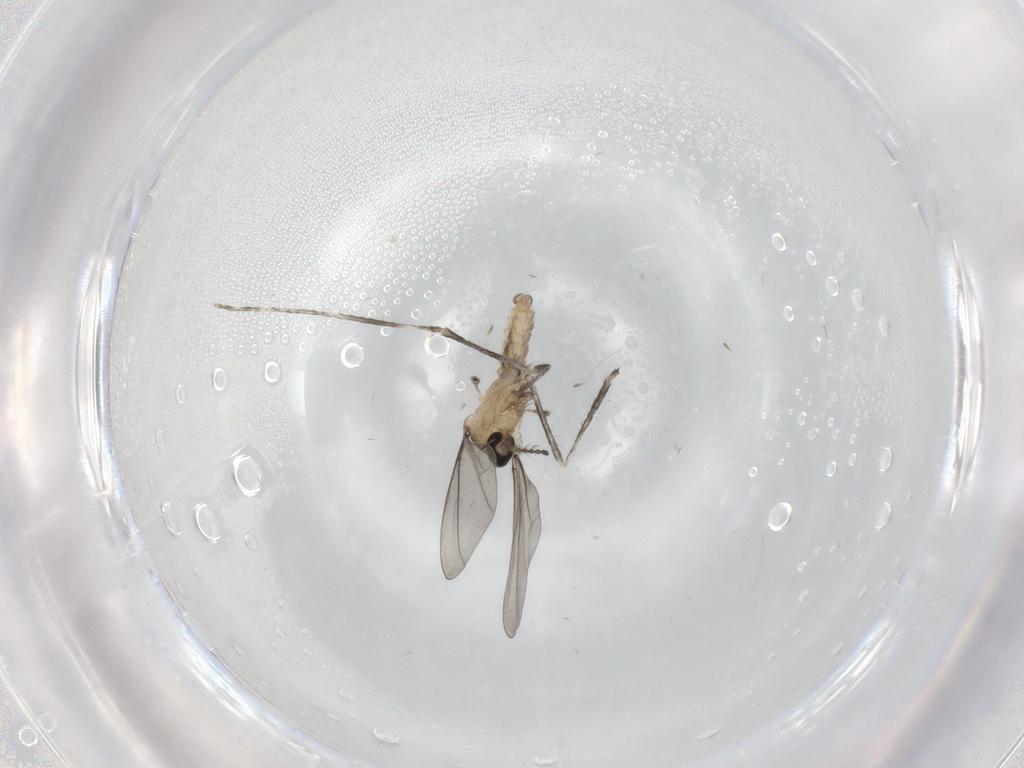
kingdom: Animalia
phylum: Arthropoda
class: Insecta
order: Diptera
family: Cecidomyiidae
